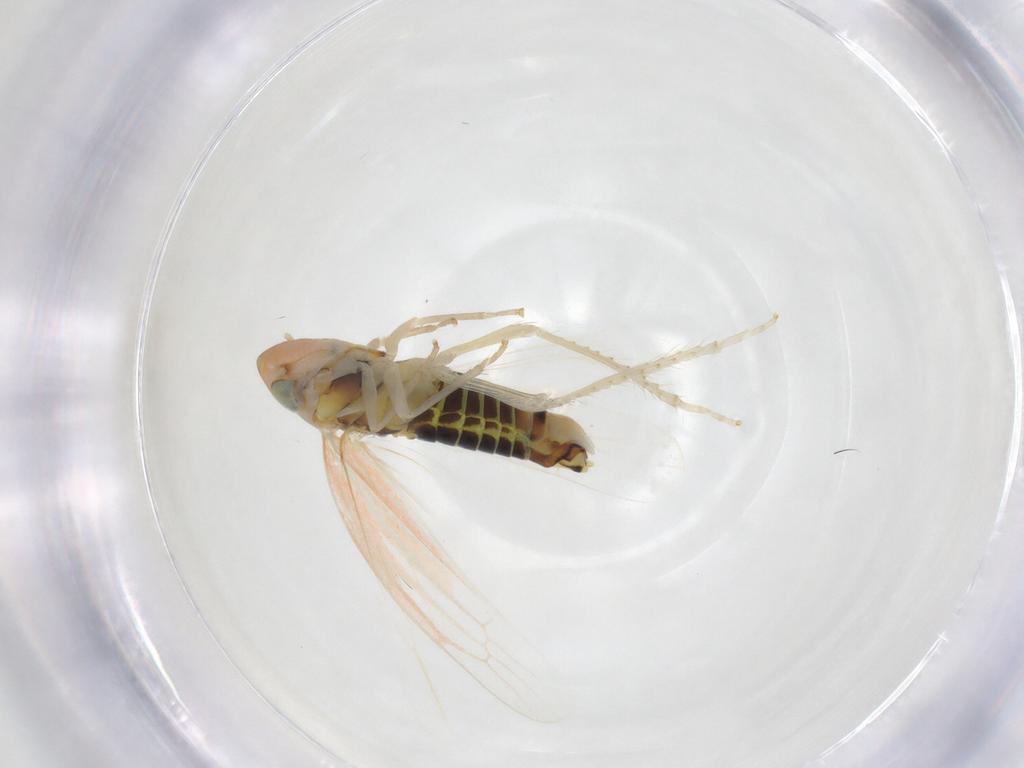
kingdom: Animalia
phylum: Arthropoda
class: Insecta
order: Hemiptera
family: Cicadellidae
